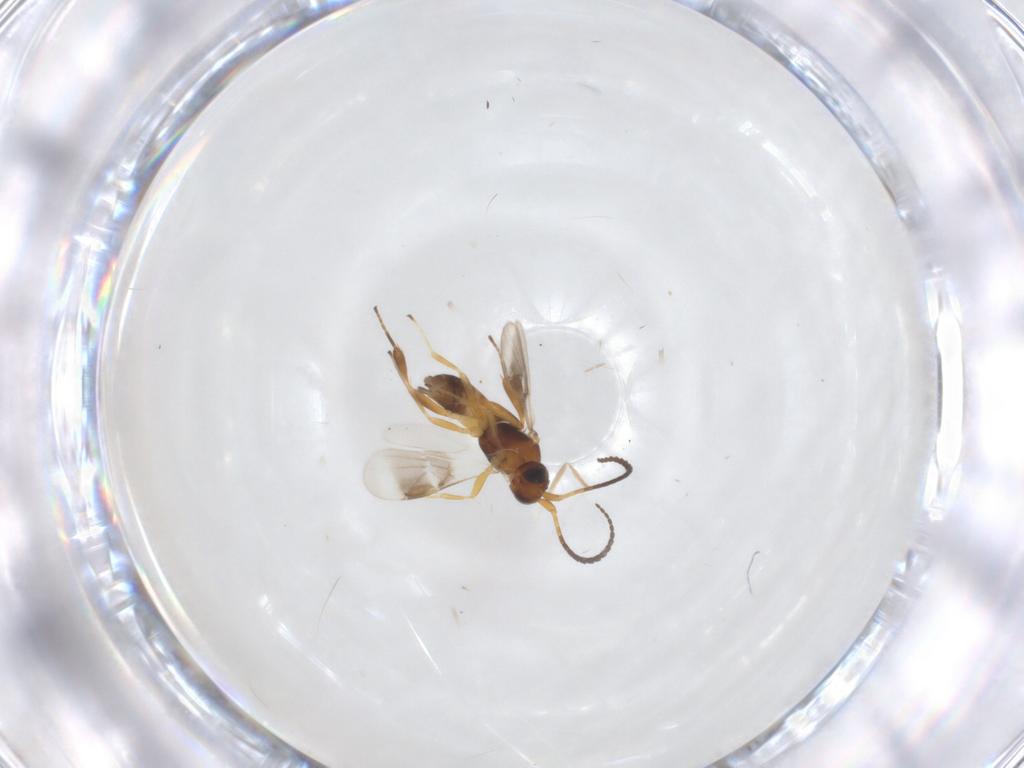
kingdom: Animalia
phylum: Arthropoda
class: Insecta
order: Hymenoptera
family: Braconidae
